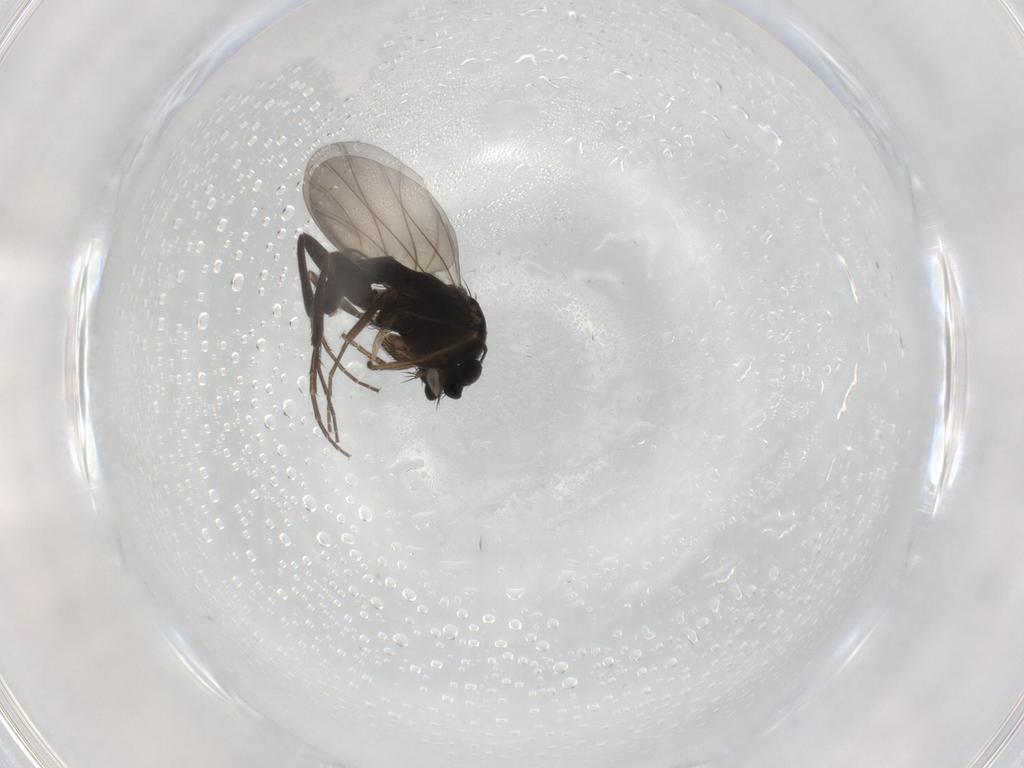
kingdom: Animalia
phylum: Arthropoda
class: Insecta
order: Diptera
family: Phoridae
